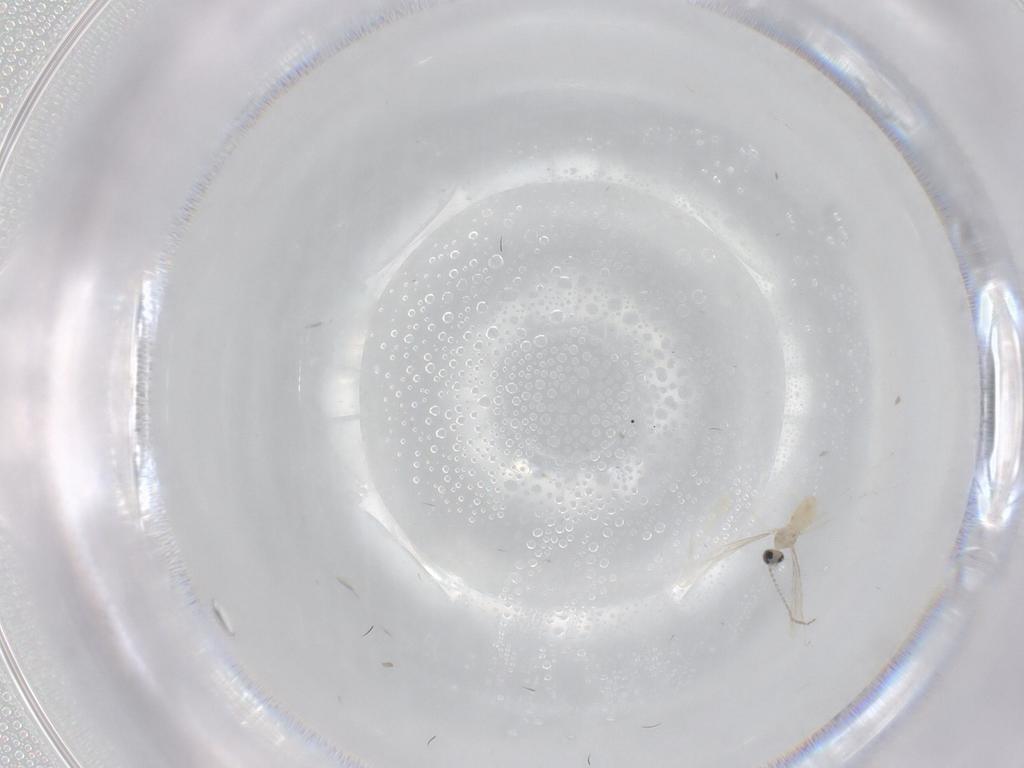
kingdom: Animalia
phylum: Arthropoda
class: Insecta
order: Diptera
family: Cecidomyiidae
